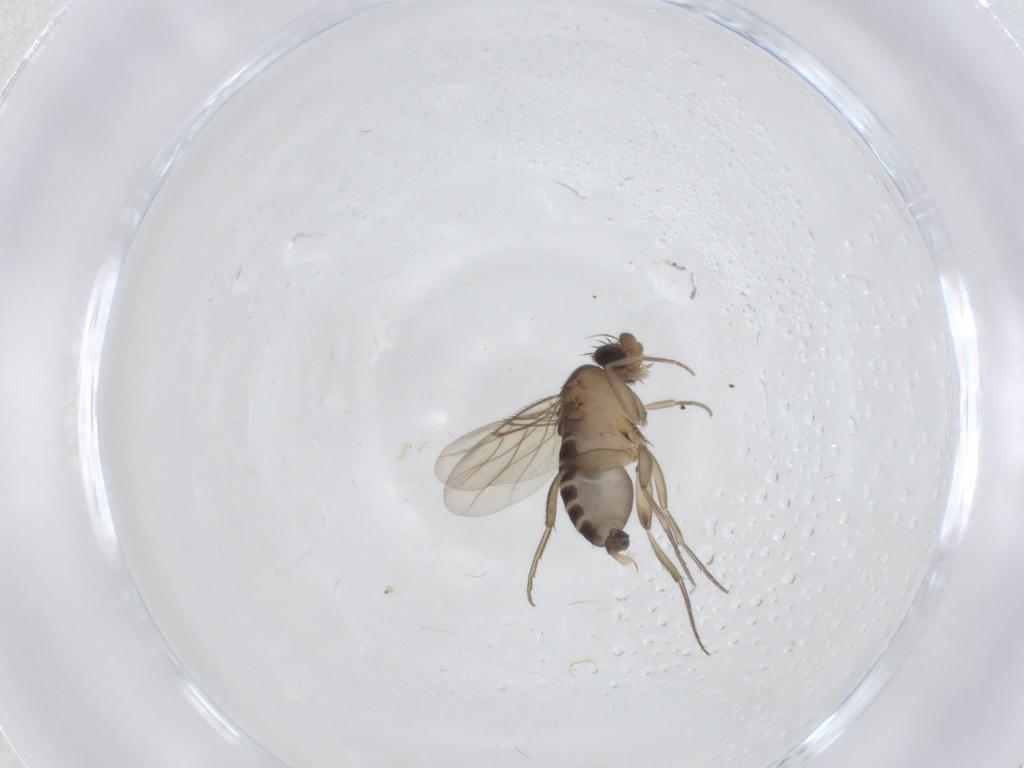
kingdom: Animalia
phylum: Arthropoda
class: Insecta
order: Diptera
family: Phoridae
